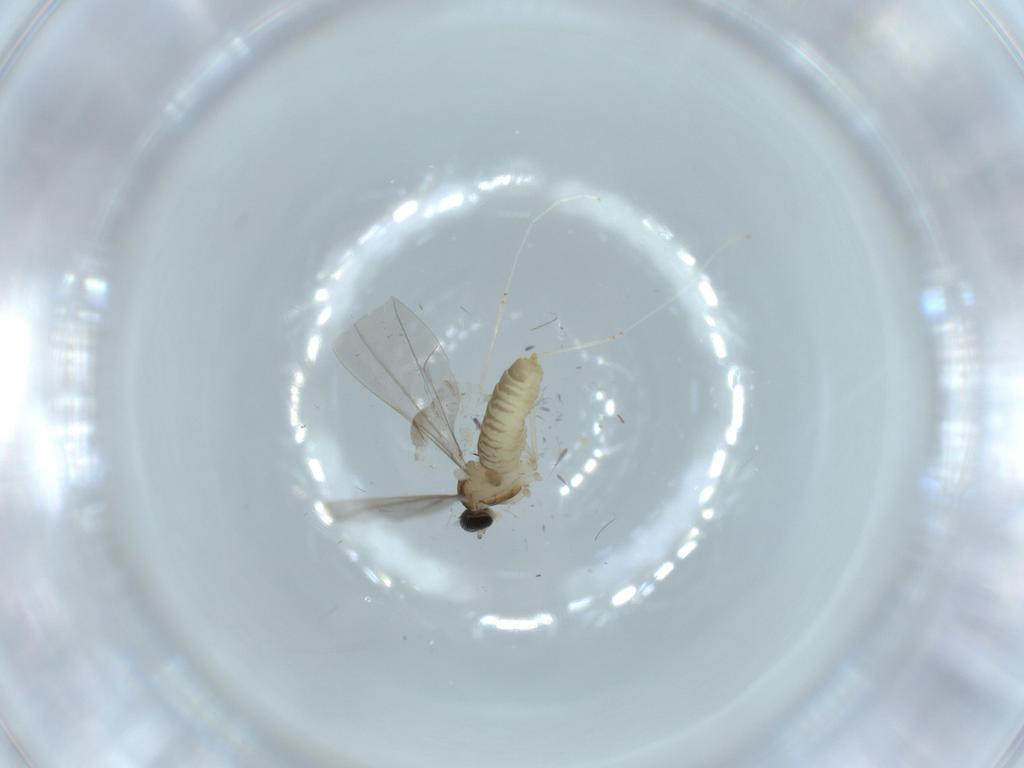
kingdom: Animalia
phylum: Arthropoda
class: Insecta
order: Diptera
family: Cecidomyiidae
